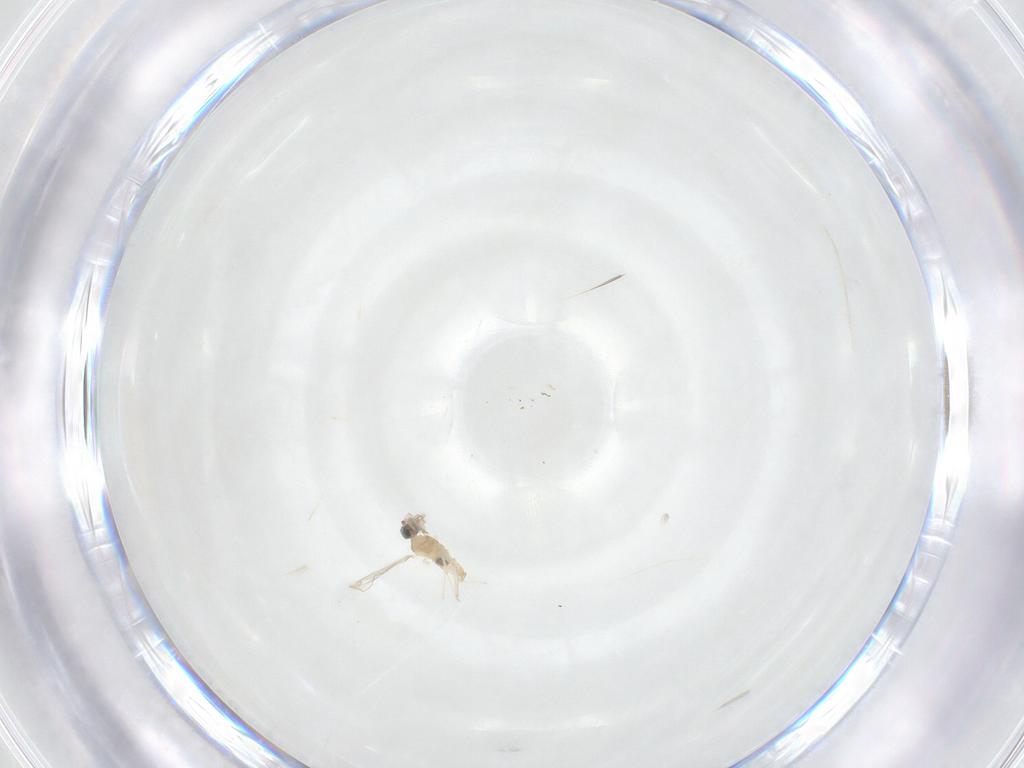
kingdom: Animalia
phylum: Arthropoda
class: Insecta
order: Diptera
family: Cecidomyiidae
